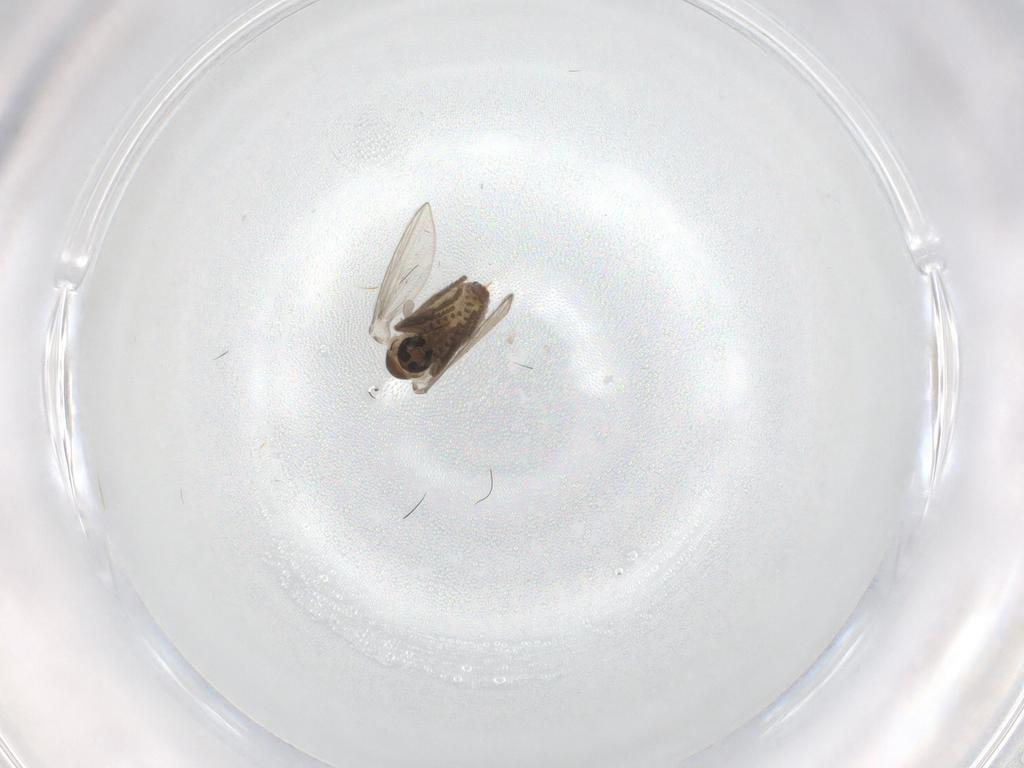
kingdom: Animalia
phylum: Arthropoda
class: Insecta
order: Diptera
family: Psychodidae
